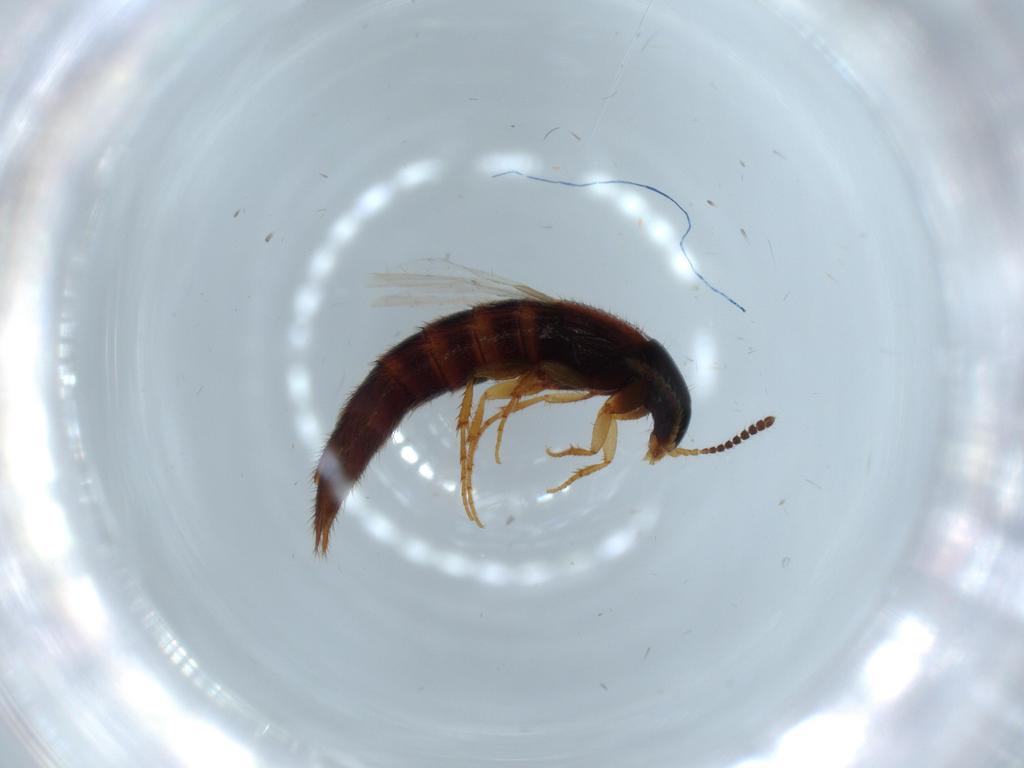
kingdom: Animalia
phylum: Arthropoda
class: Insecta
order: Coleoptera
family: Staphylinidae
